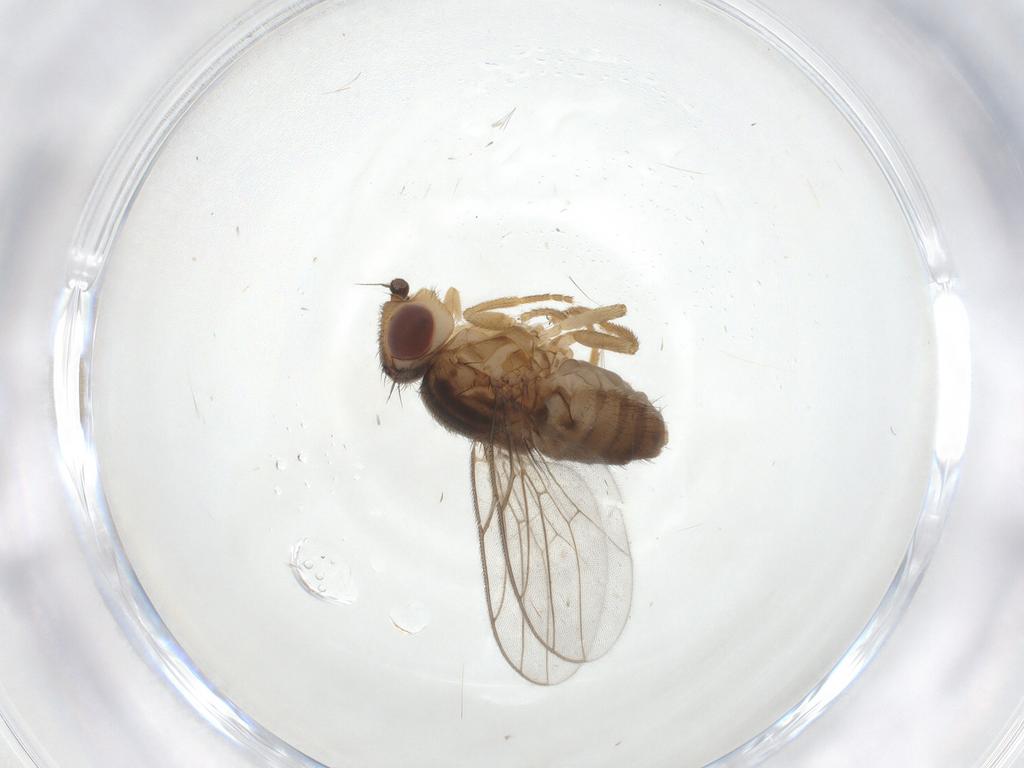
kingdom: Animalia
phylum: Arthropoda
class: Insecta
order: Diptera
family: Chloropidae
